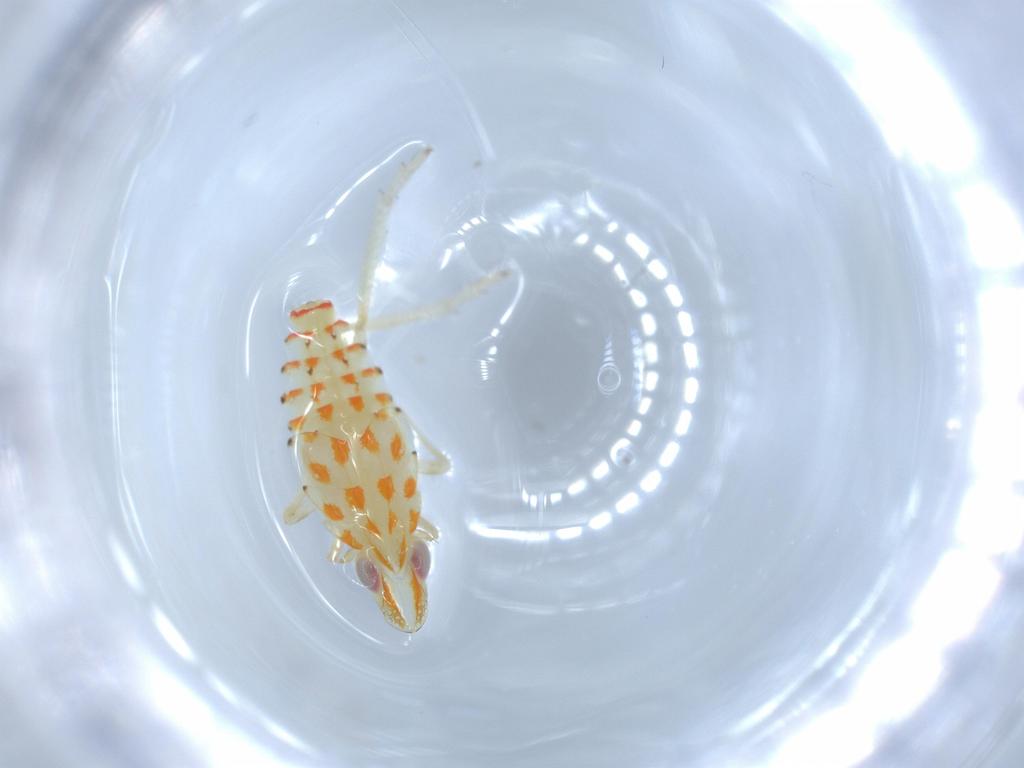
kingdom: Animalia
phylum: Arthropoda
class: Insecta
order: Hemiptera
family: Tropiduchidae
